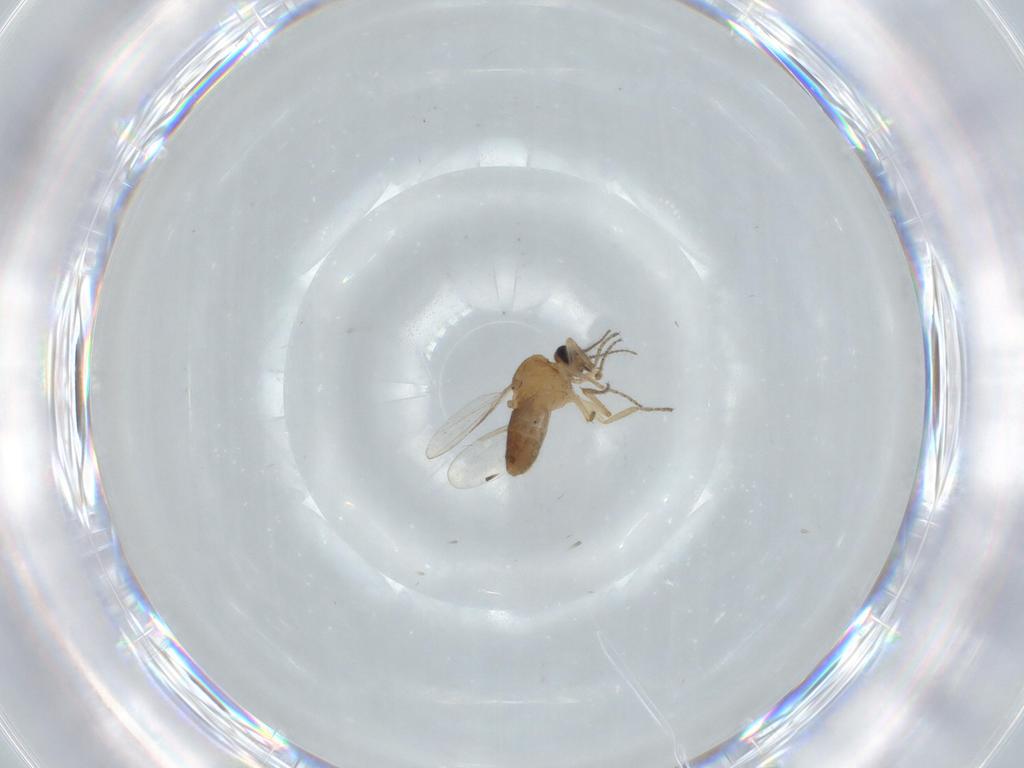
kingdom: Animalia
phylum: Arthropoda
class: Insecta
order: Diptera
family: Ceratopogonidae
